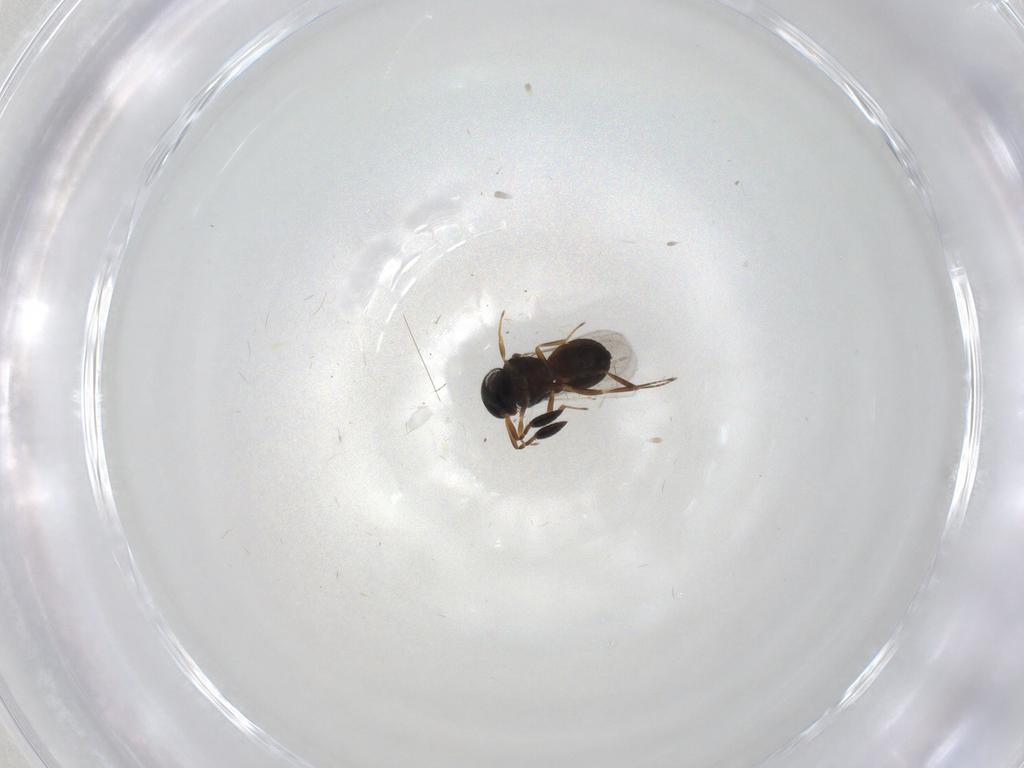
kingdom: Animalia
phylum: Arthropoda
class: Insecta
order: Hymenoptera
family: Scelionidae
